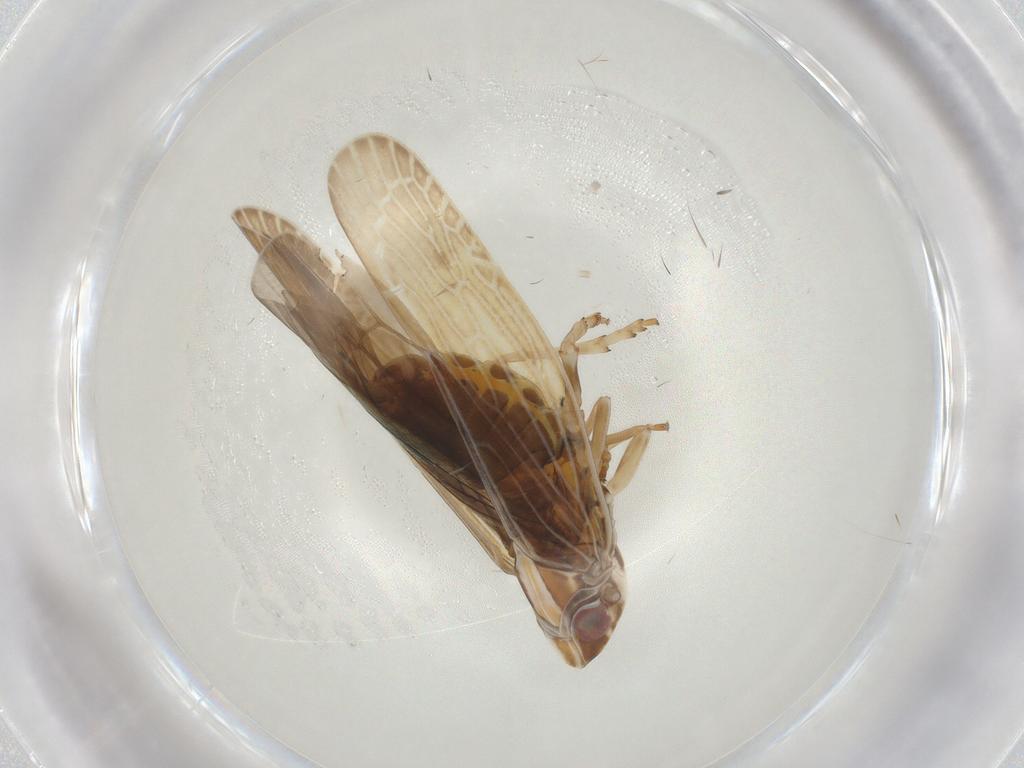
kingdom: Animalia
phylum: Arthropoda
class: Insecta
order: Hemiptera
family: Achilidae
